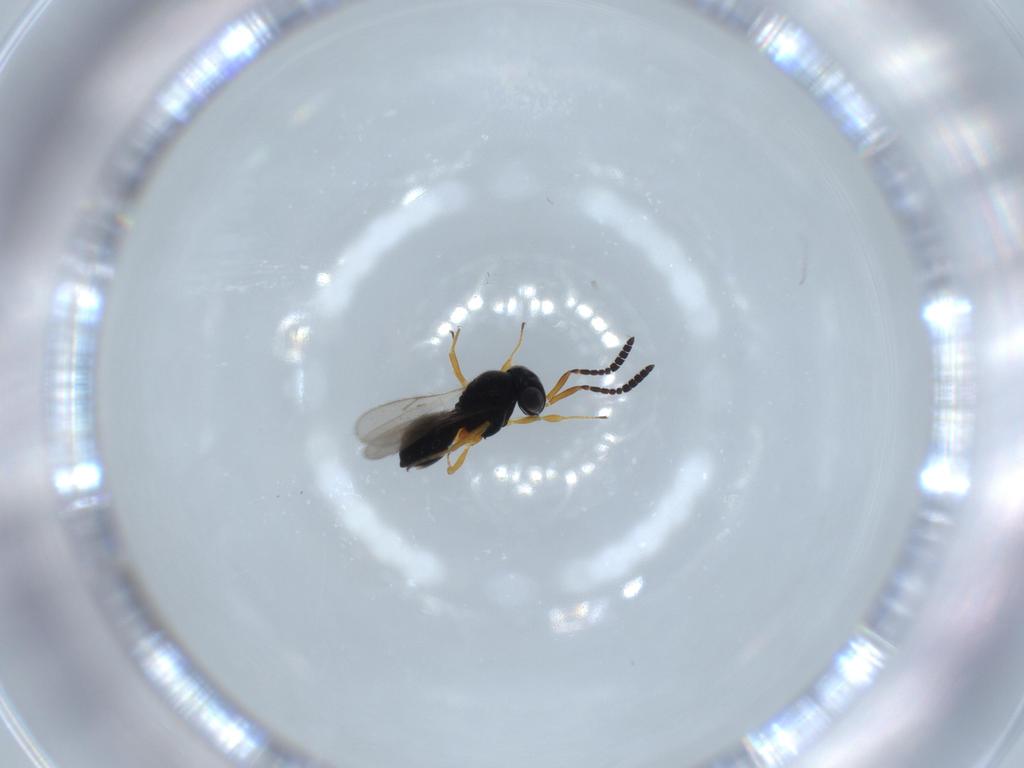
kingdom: Animalia
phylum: Arthropoda
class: Insecta
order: Hymenoptera
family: Scelionidae
